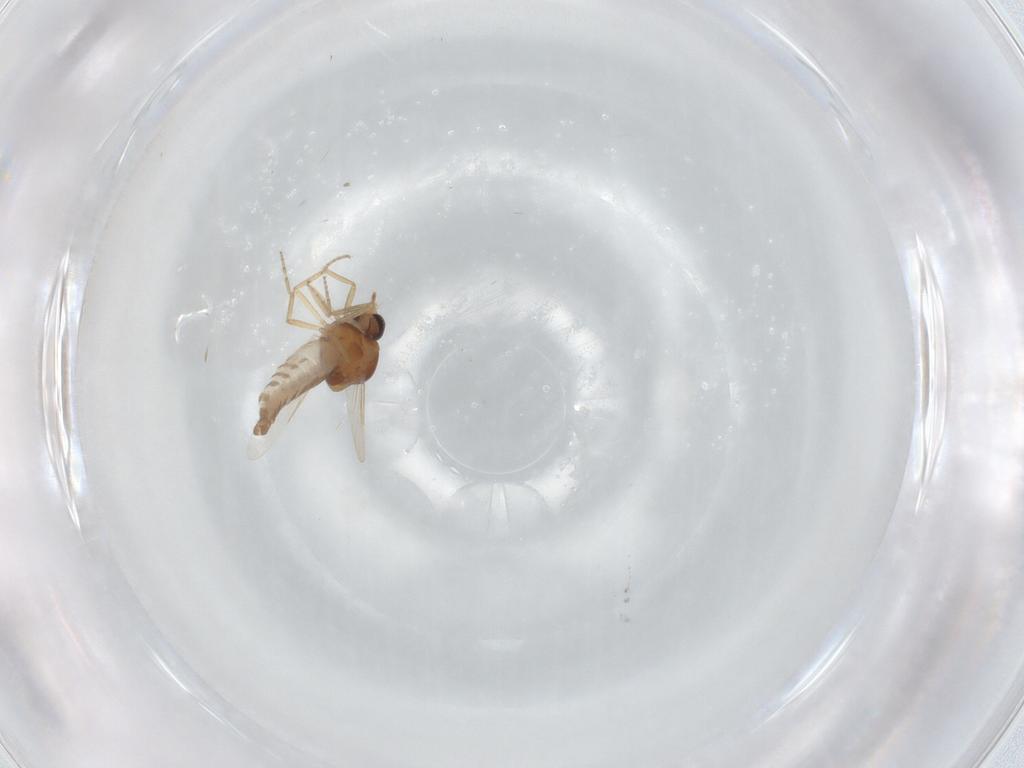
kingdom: Animalia
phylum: Arthropoda
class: Insecta
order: Diptera
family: Ceratopogonidae
